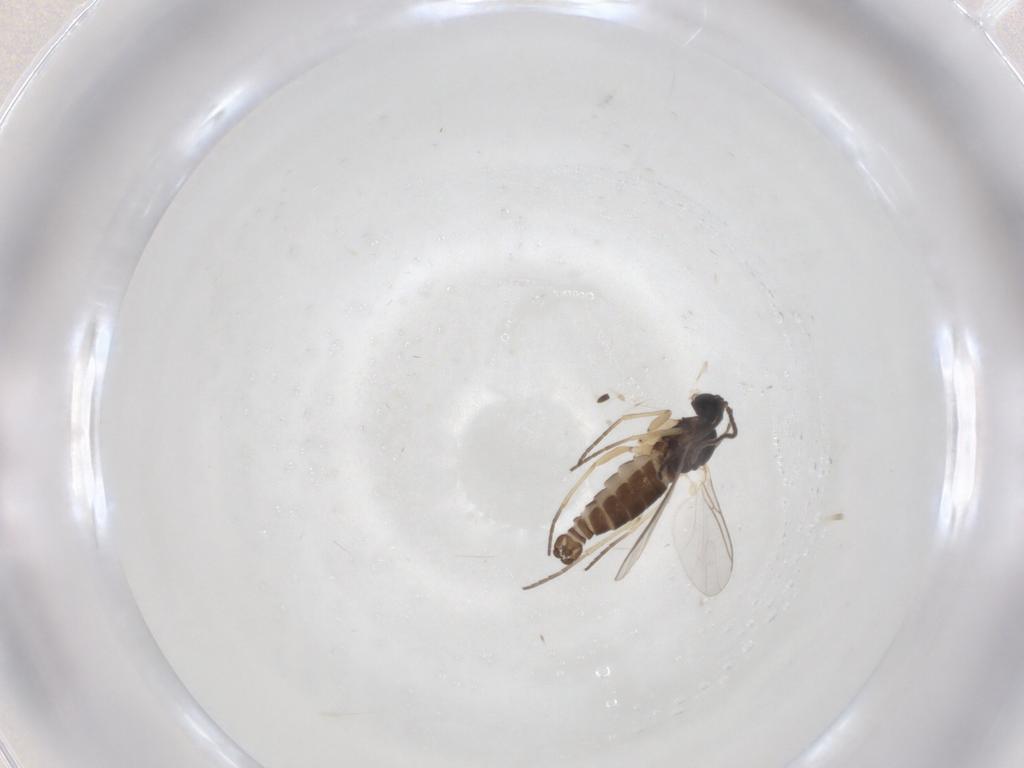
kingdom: Animalia
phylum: Arthropoda
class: Insecta
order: Diptera
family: Sciaridae
